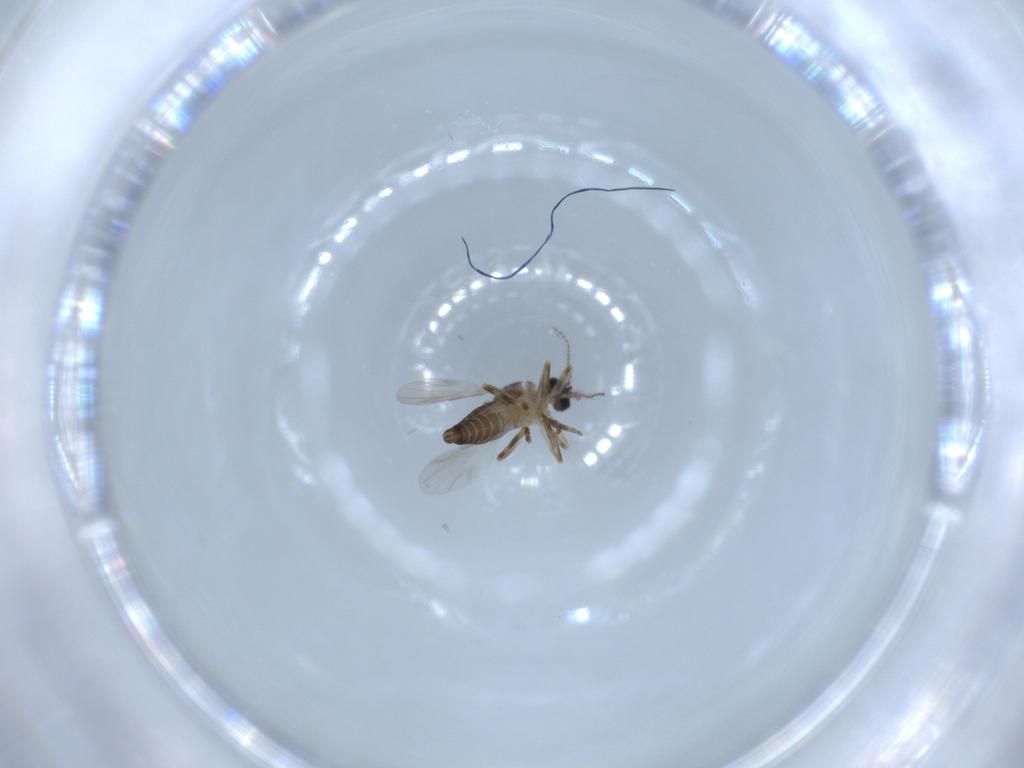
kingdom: Animalia
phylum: Arthropoda
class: Insecta
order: Diptera
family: Ceratopogonidae
